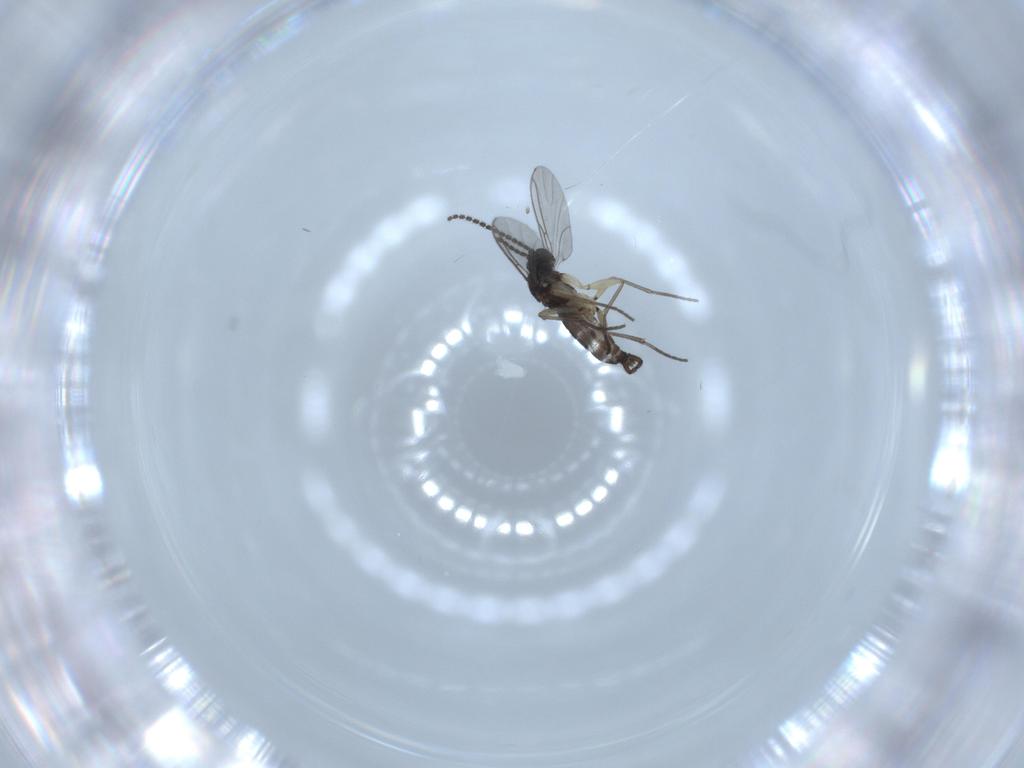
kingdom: Animalia
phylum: Arthropoda
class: Insecta
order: Diptera
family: Sciaridae
